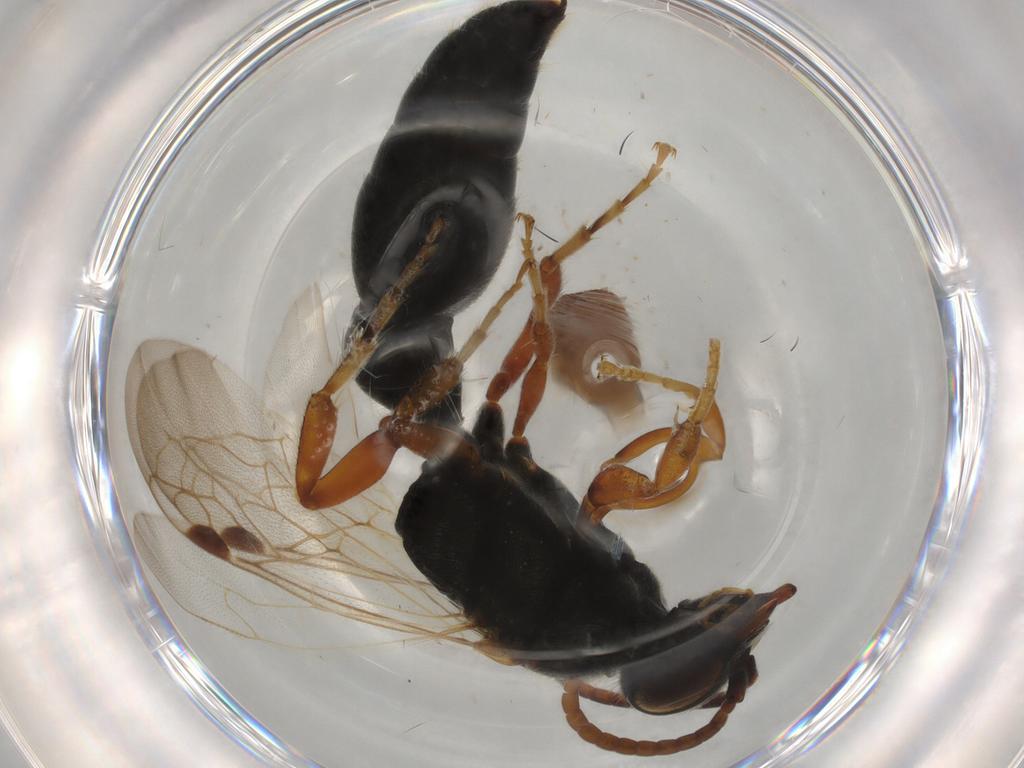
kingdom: Animalia
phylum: Arthropoda
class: Insecta
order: Hymenoptera
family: Tiphiidae
